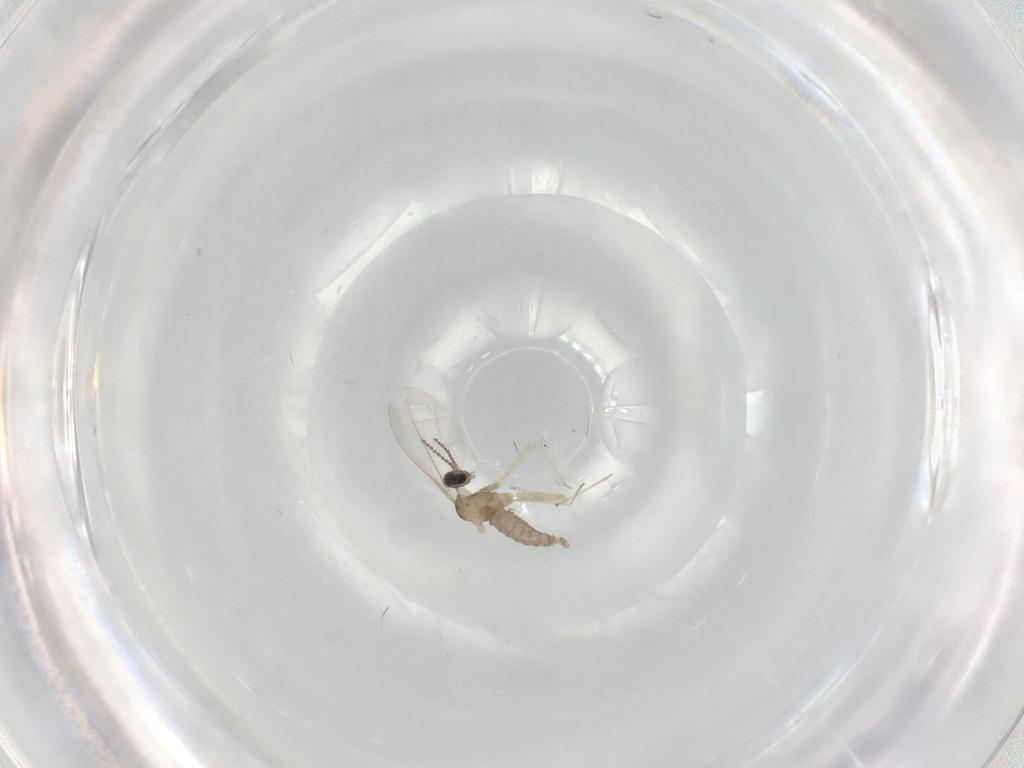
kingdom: Animalia
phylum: Arthropoda
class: Insecta
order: Diptera
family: Cecidomyiidae
